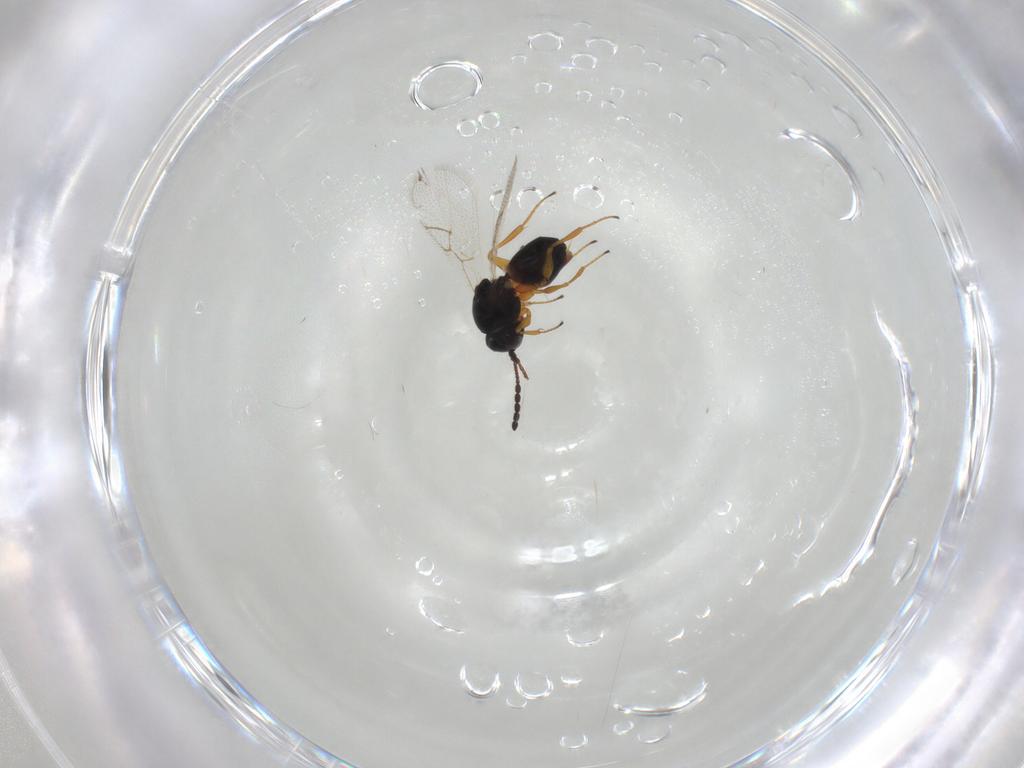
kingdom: Animalia
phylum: Arthropoda
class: Insecta
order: Hymenoptera
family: Figitidae
